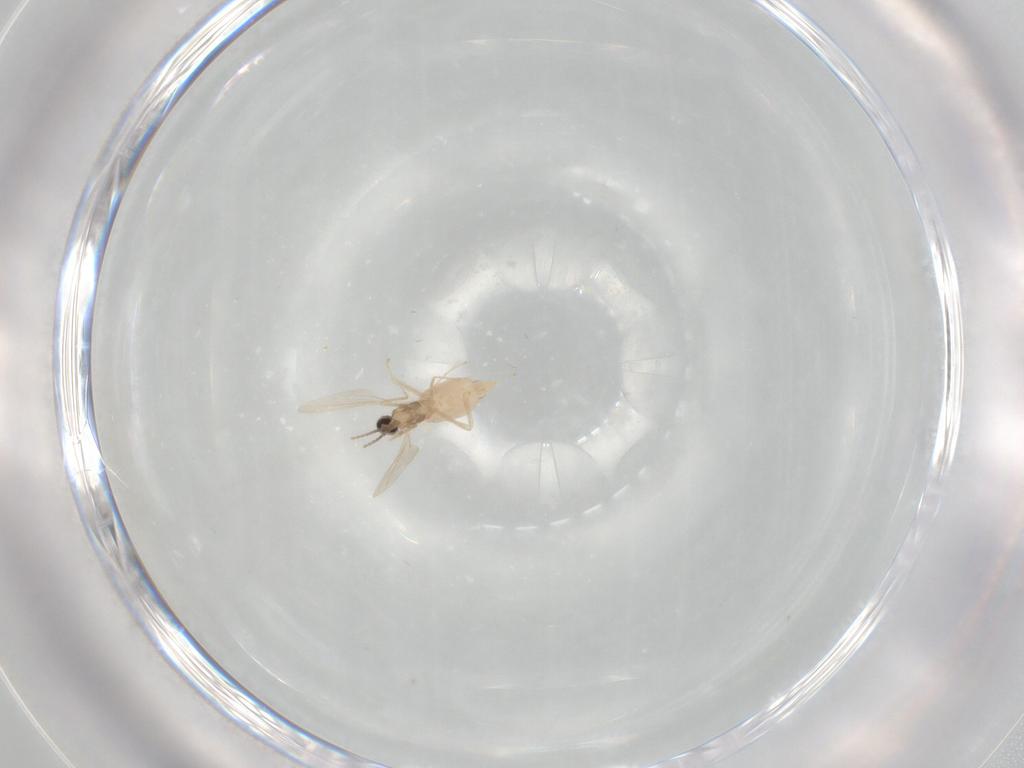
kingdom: Animalia
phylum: Arthropoda
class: Insecta
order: Diptera
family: Cecidomyiidae
